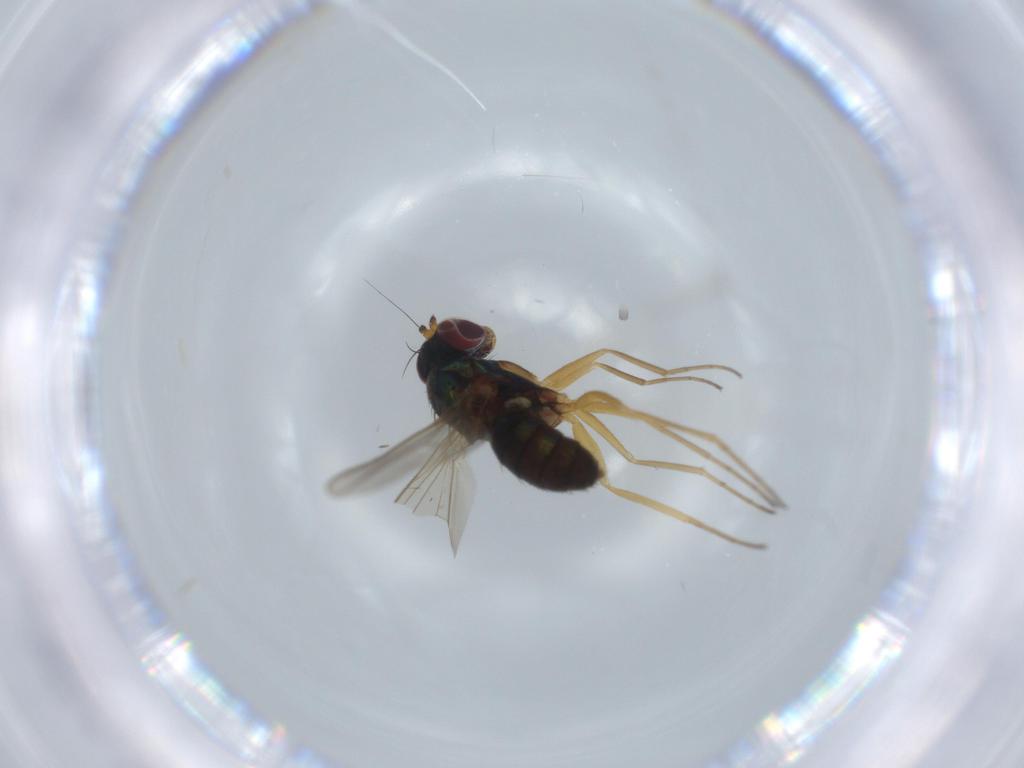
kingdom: Animalia
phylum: Arthropoda
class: Insecta
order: Diptera
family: Dolichopodidae
